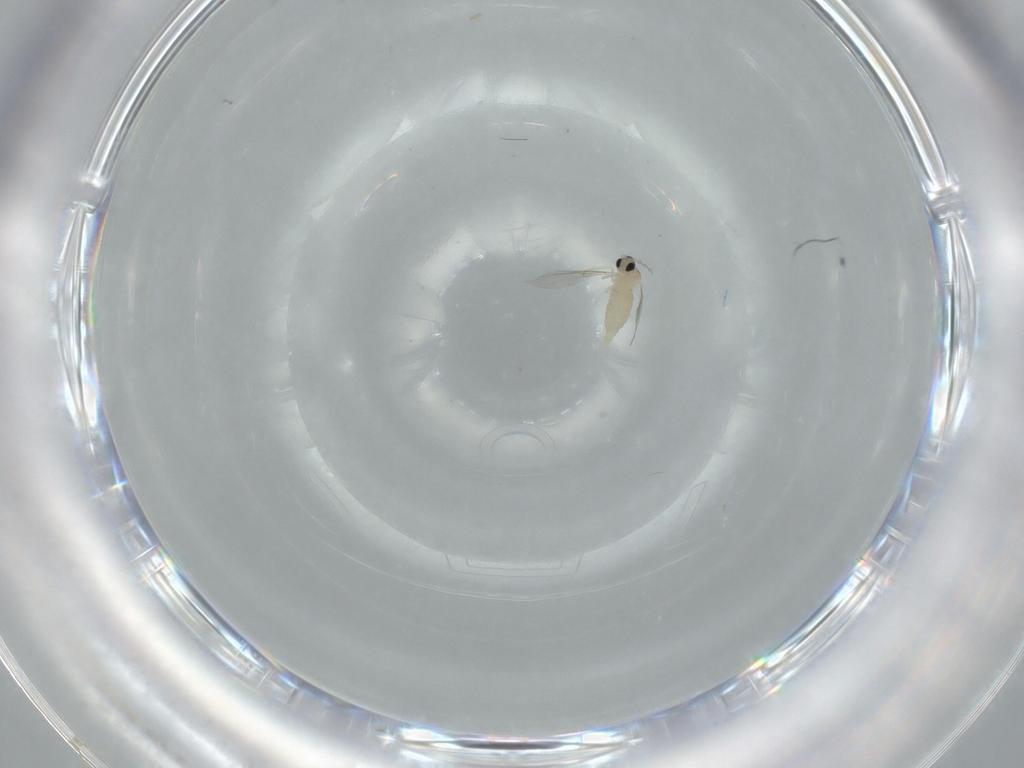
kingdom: Animalia
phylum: Arthropoda
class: Insecta
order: Diptera
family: Cecidomyiidae
